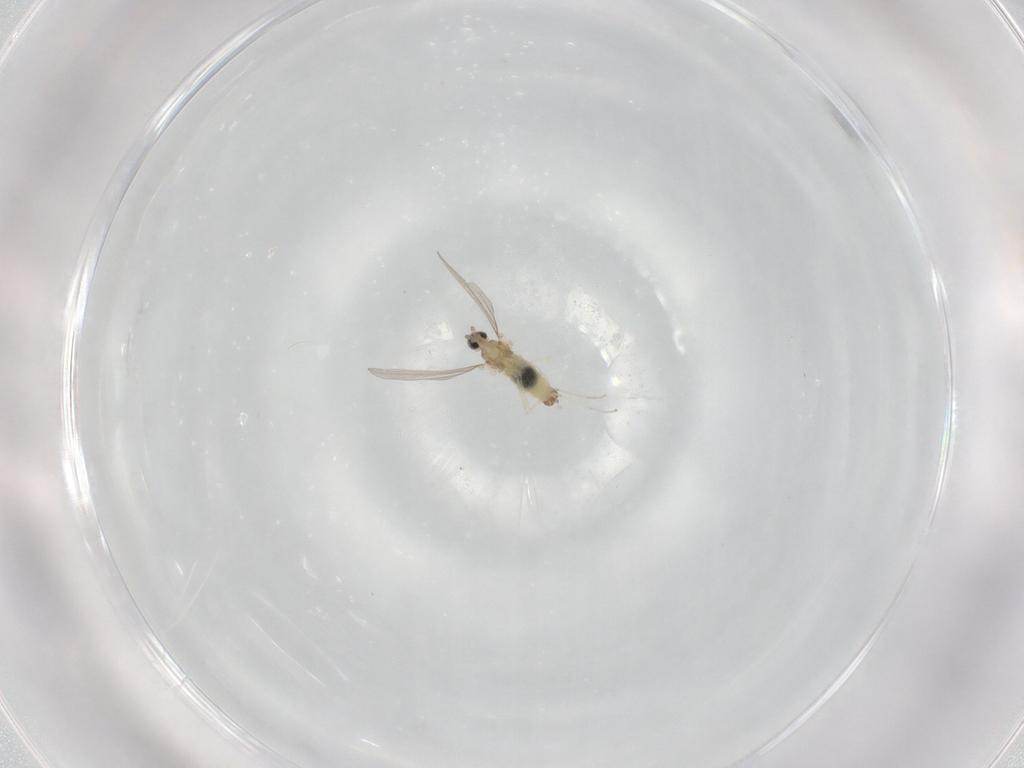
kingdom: Animalia
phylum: Arthropoda
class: Insecta
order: Diptera
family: Cecidomyiidae
